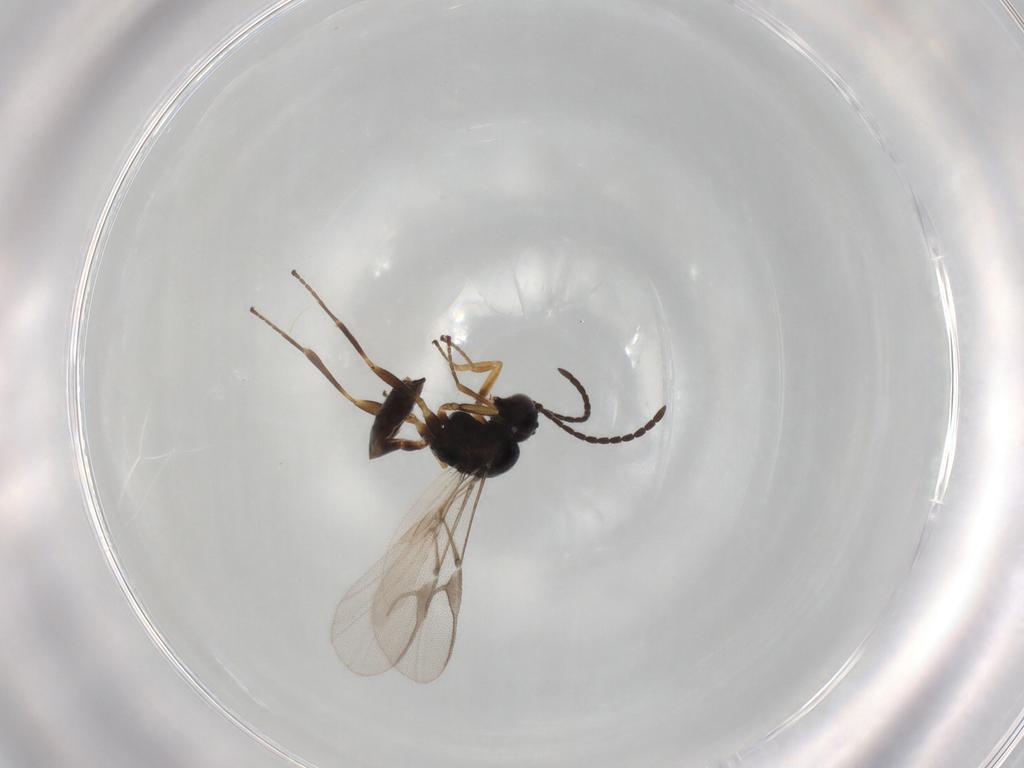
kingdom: Animalia
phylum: Arthropoda
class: Insecta
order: Hymenoptera
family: Braconidae
